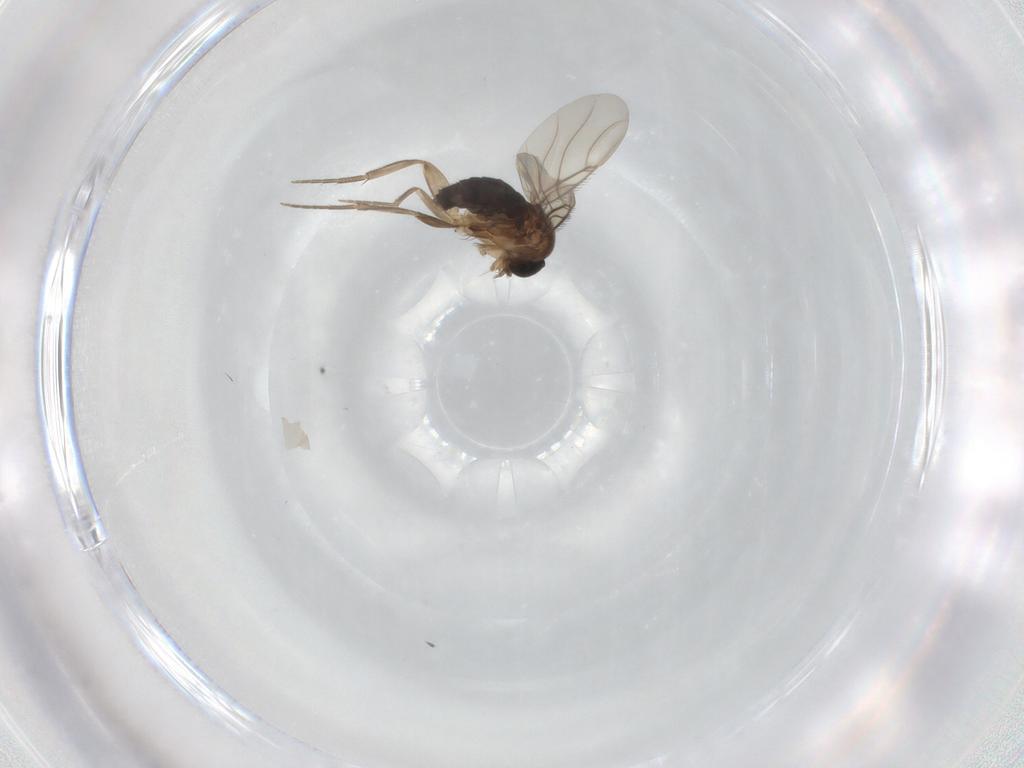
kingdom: Animalia
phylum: Arthropoda
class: Insecta
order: Diptera
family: Phoridae
